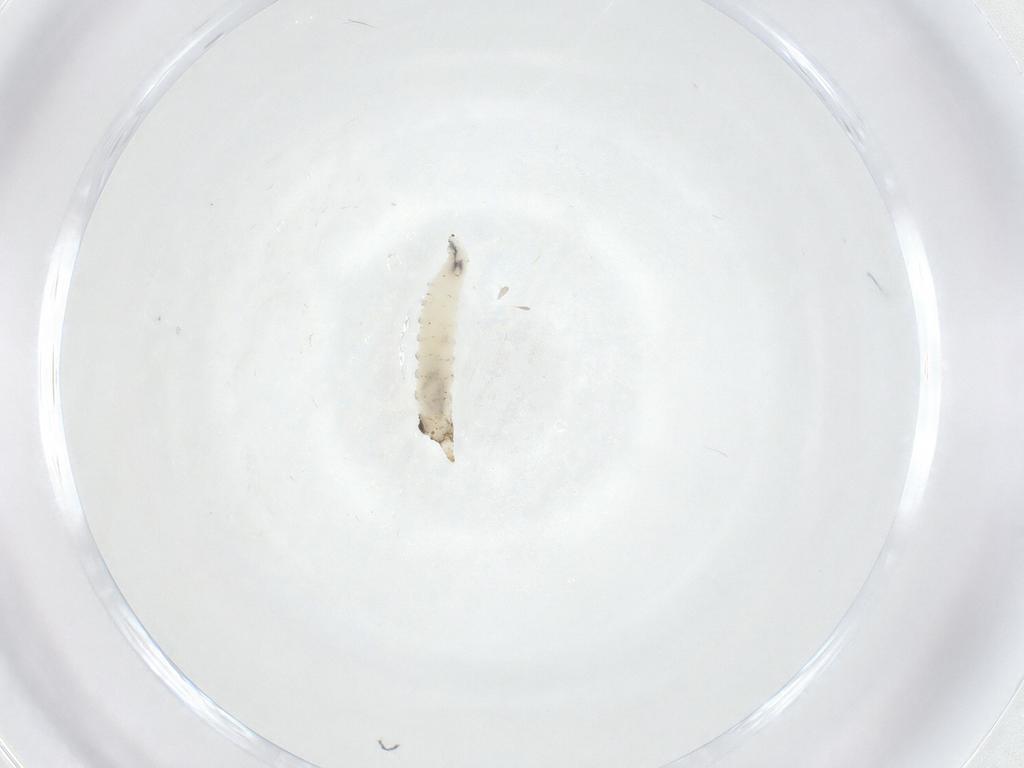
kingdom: Animalia
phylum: Arthropoda
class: Insecta
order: Diptera
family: Drosophilidae
